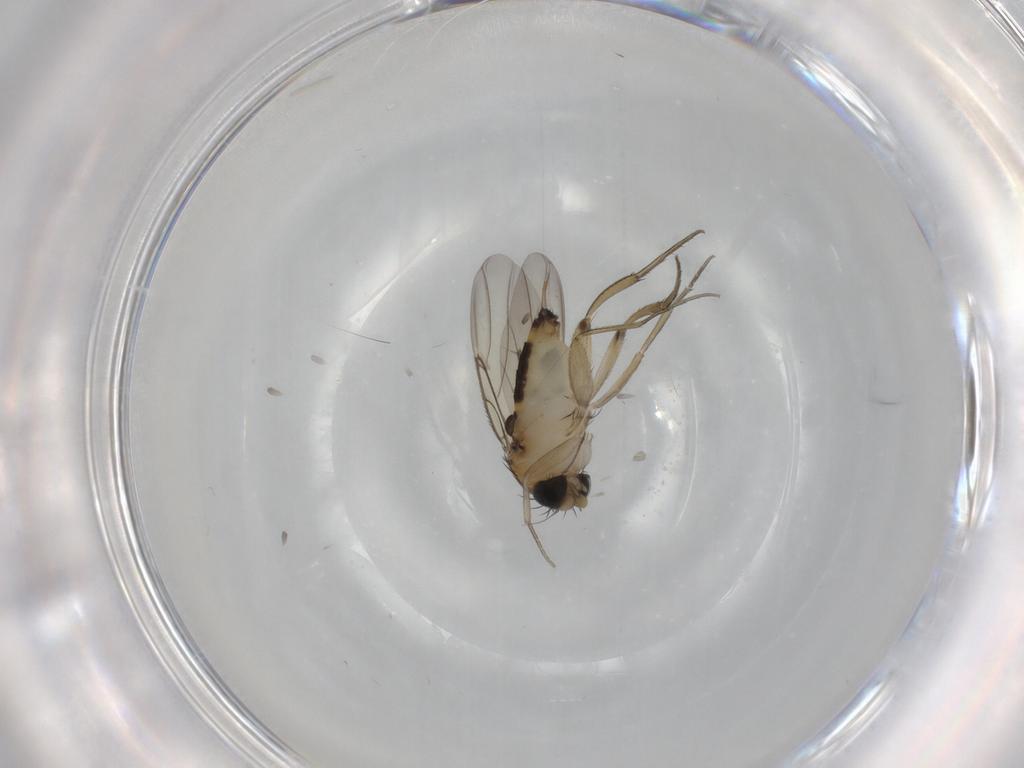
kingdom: Animalia
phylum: Arthropoda
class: Insecta
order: Diptera
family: Phoridae
